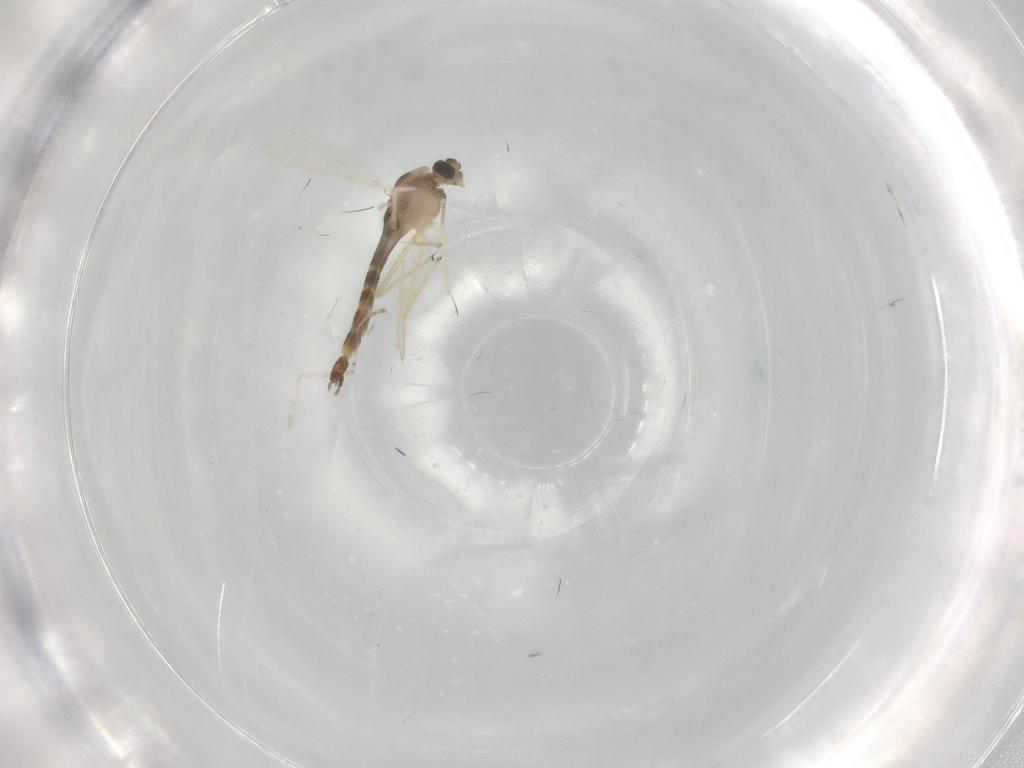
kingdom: Animalia
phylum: Arthropoda
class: Insecta
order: Diptera
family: Chironomidae
